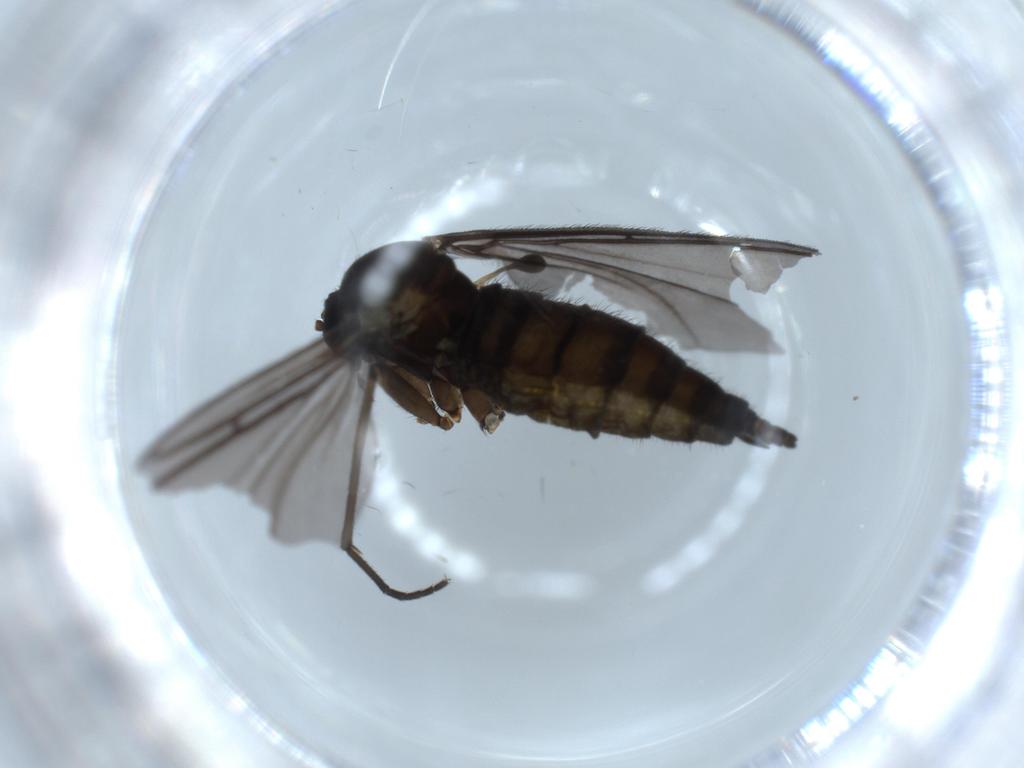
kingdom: Animalia
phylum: Arthropoda
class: Insecta
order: Diptera
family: Sciaridae
